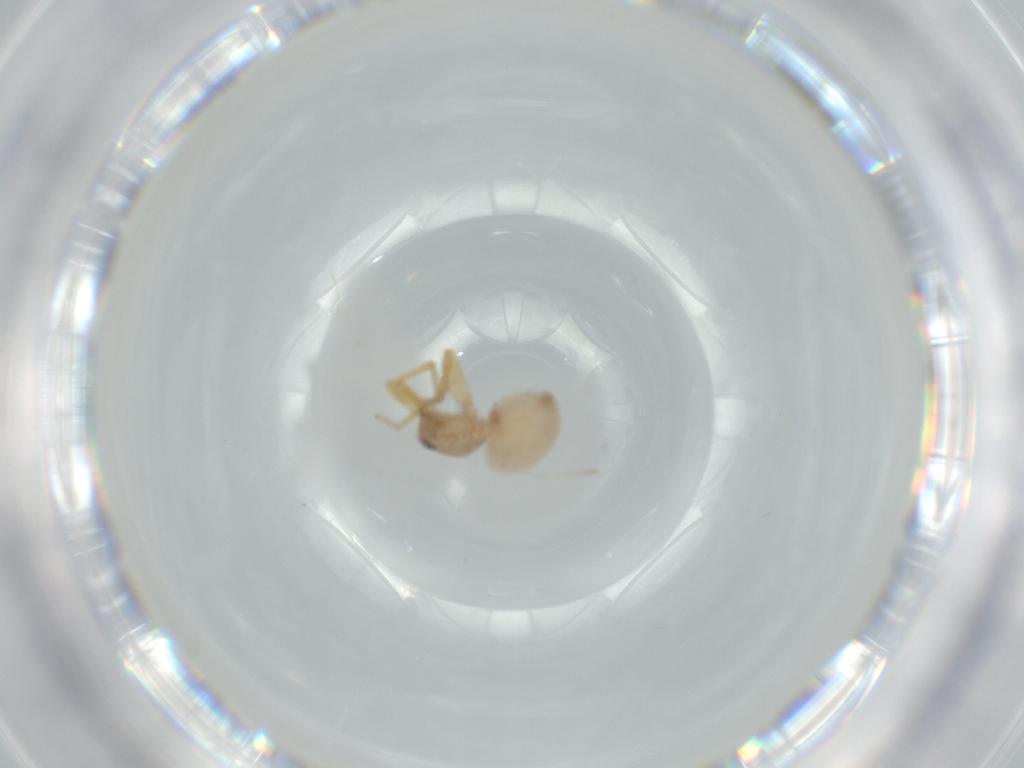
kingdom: Animalia
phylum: Arthropoda
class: Arachnida
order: Araneae
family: Oonopidae
